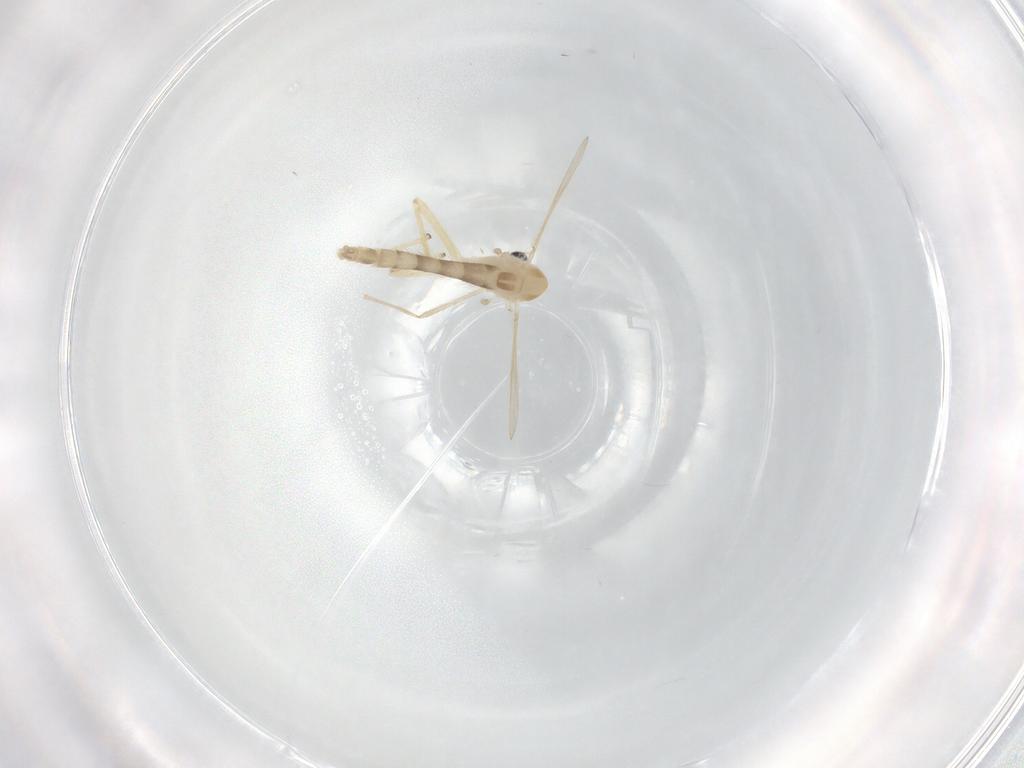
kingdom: Animalia
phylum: Arthropoda
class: Insecta
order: Diptera
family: Chironomidae
